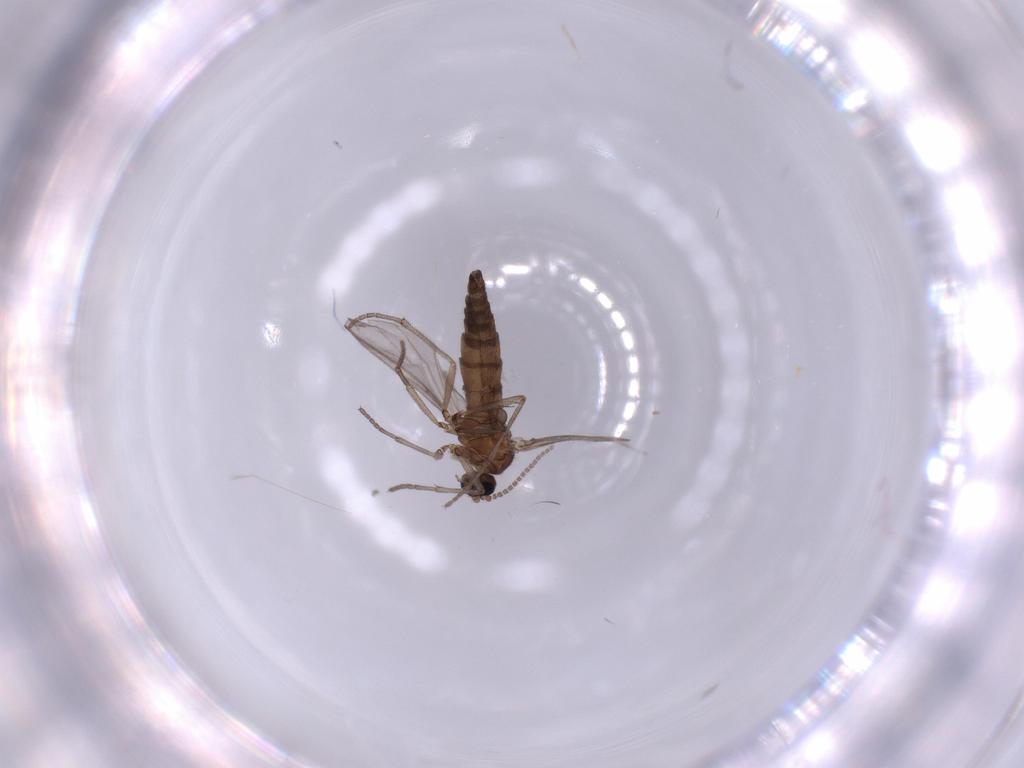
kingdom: Animalia
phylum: Arthropoda
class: Insecta
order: Diptera
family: Sciaridae
